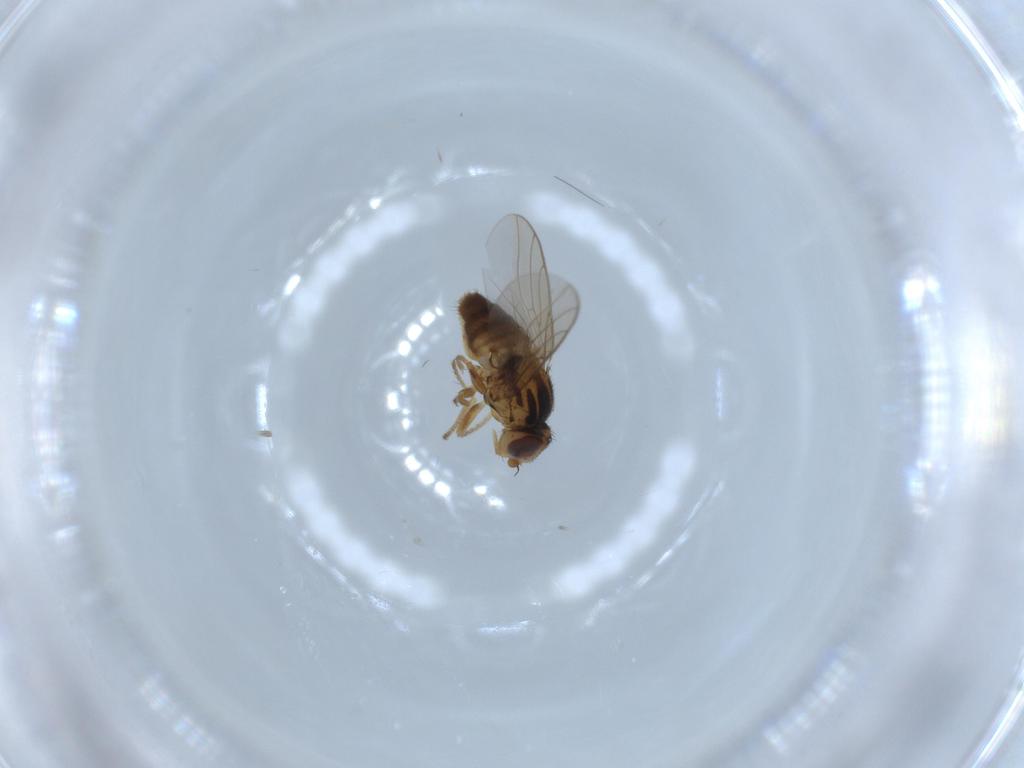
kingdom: Animalia
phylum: Arthropoda
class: Insecta
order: Diptera
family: Chloropidae
